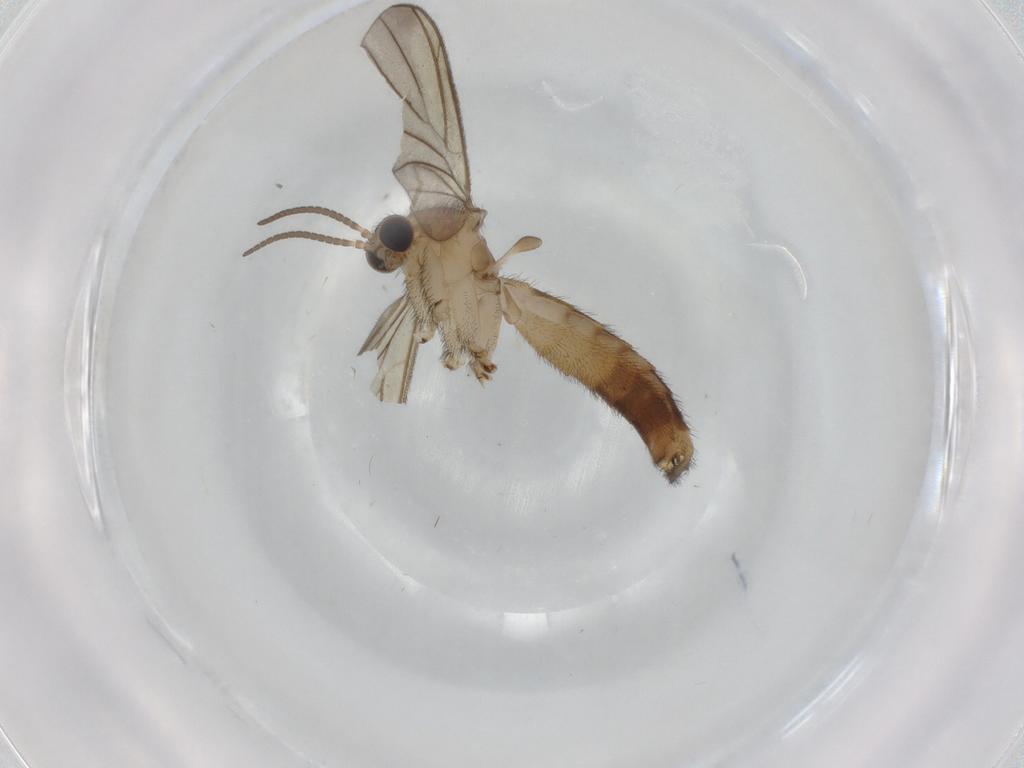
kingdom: Animalia
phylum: Arthropoda
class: Insecta
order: Diptera
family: Keroplatidae
